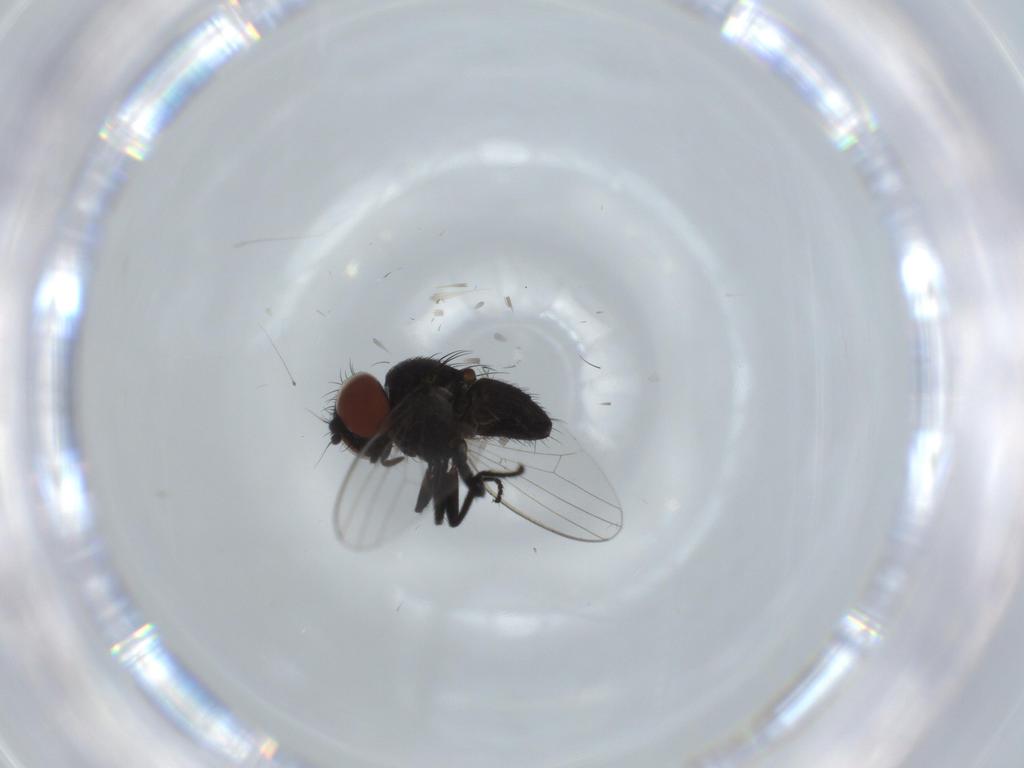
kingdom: Animalia
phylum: Arthropoda
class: Insecta
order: Diptera
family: Milichiidae
